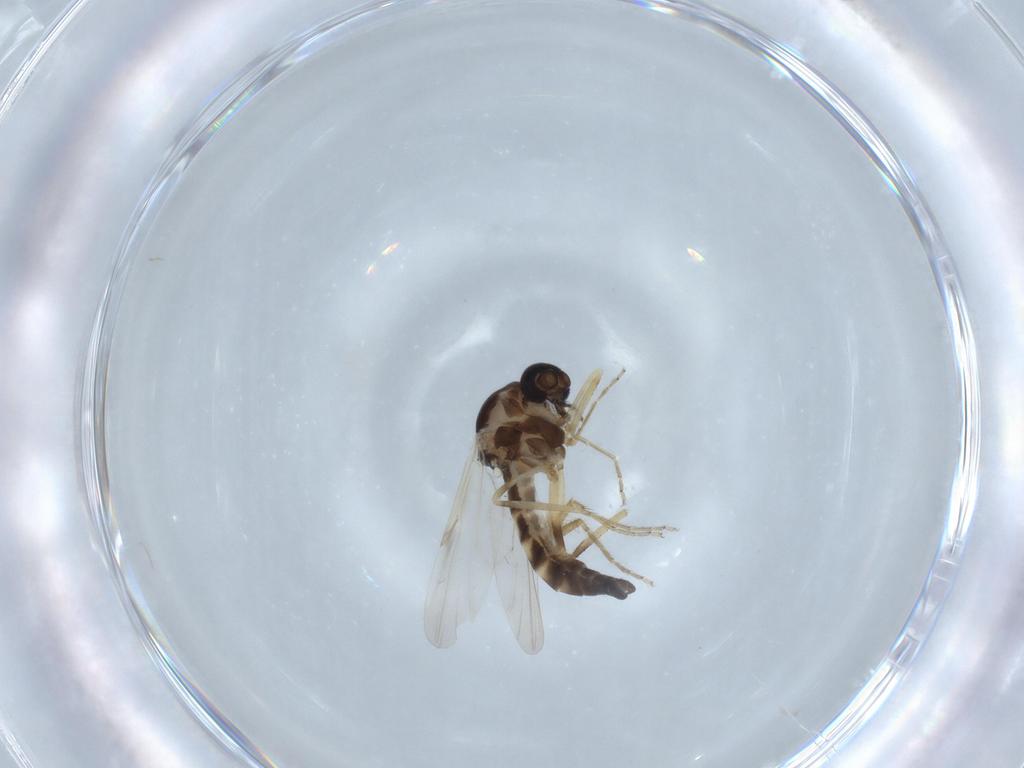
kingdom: Animalia
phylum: Arthropoda
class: Insecta
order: Diptera
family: Ceratopogonidae
